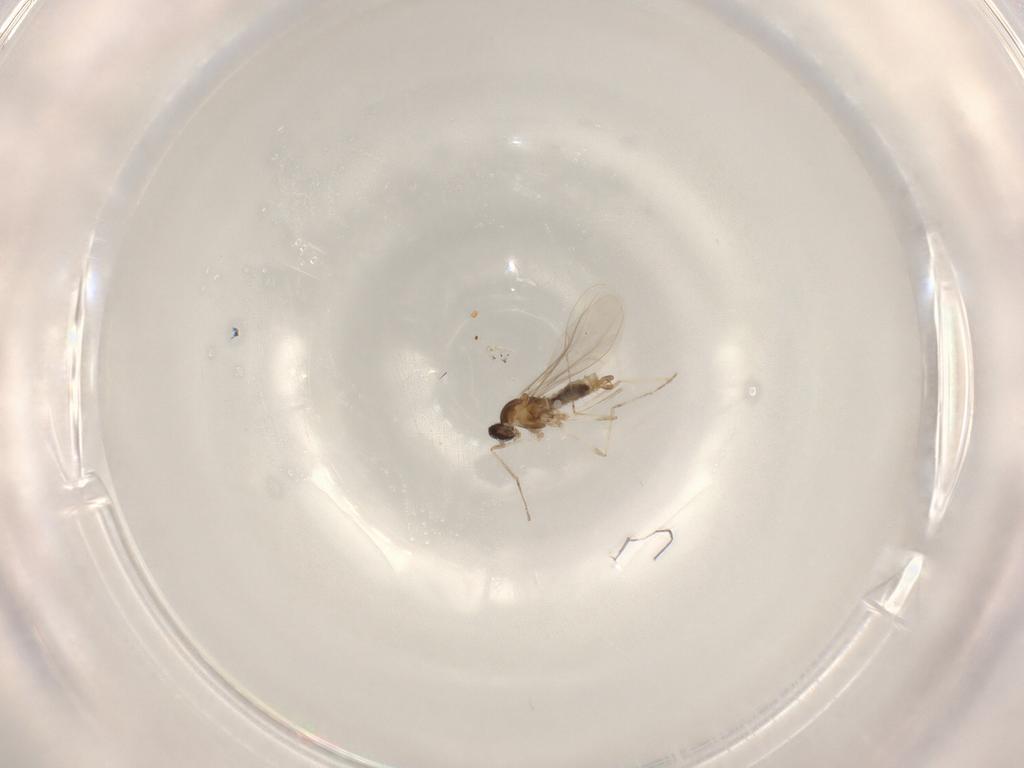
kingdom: Animalia
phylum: Arthropoda
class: Insecta
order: Diptera
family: Cecidomyiidae
